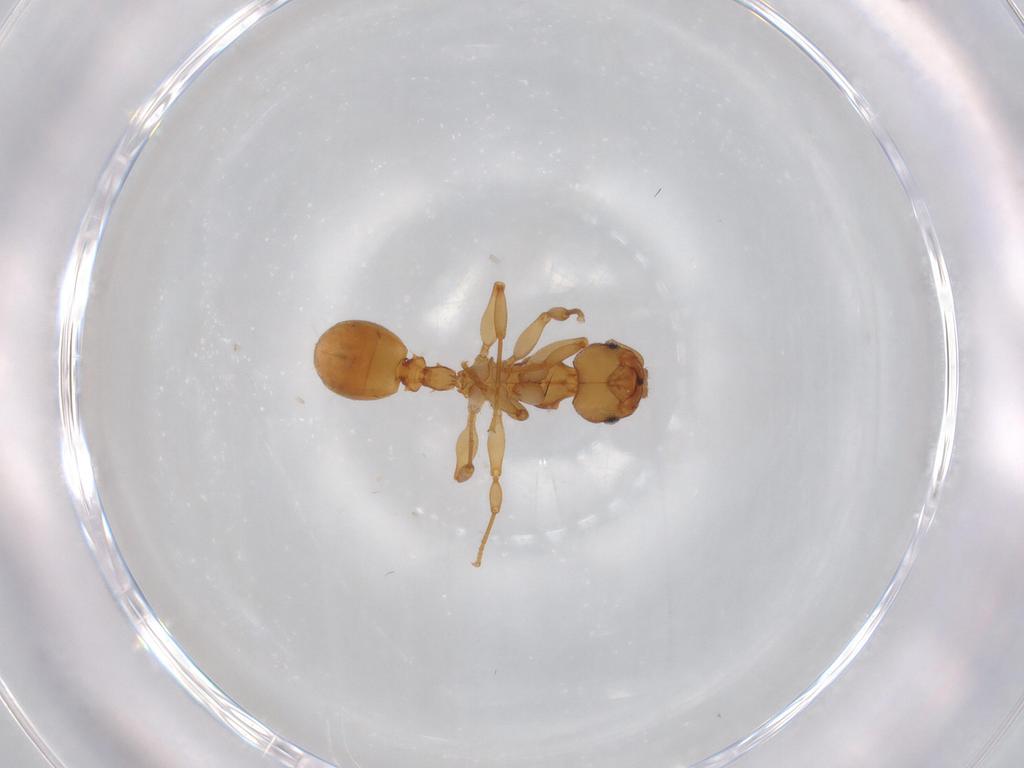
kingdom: Animalia
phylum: Arthropoda
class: Insecta
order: Hymenoptera
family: Formicidae
